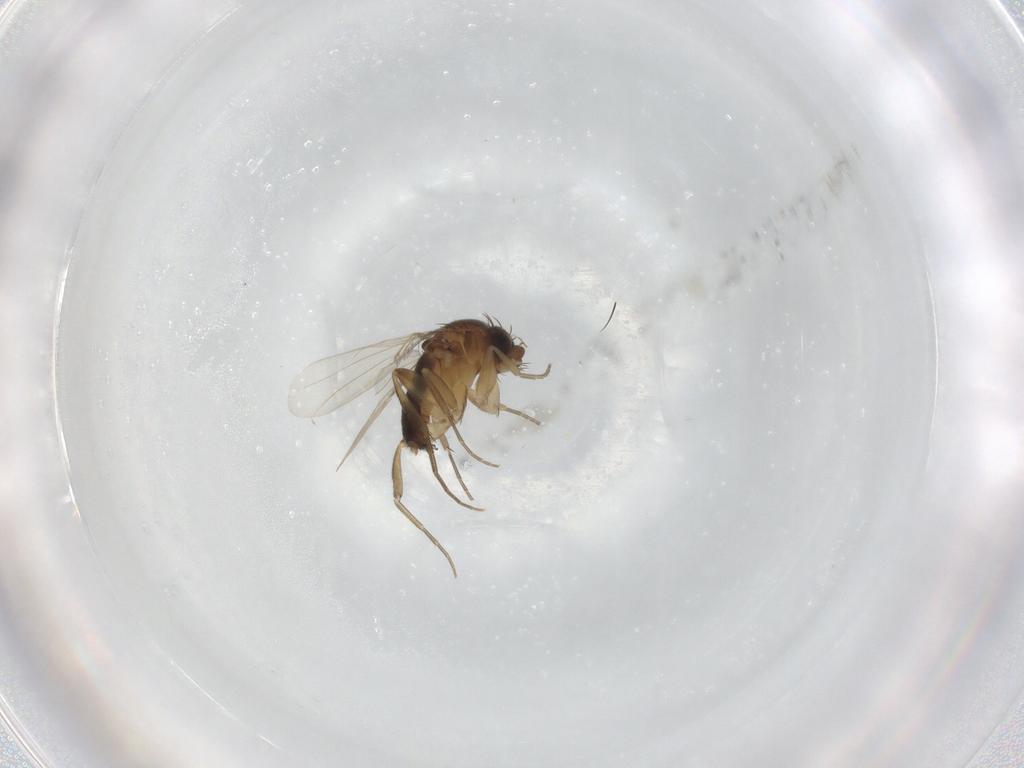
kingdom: Animalia
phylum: Arthropoda
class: Insecta
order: Diptera
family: Phoridae
